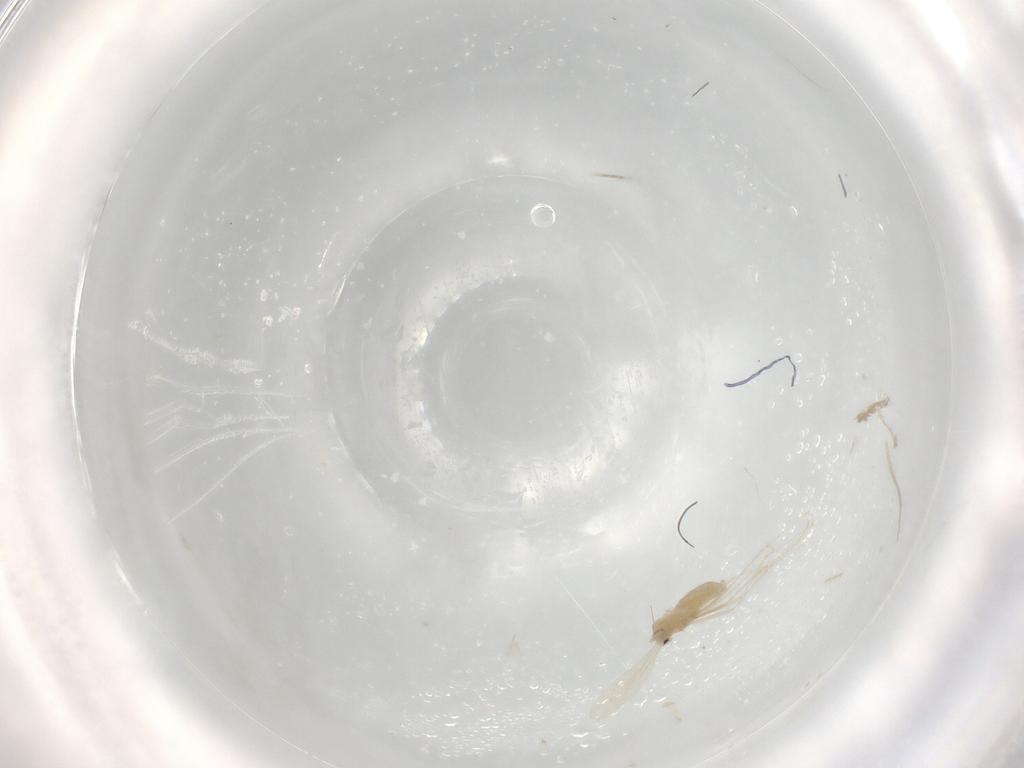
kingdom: Animalia
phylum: Arthropoda
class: Insecta
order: Diptera
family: Cecidomyiidae
